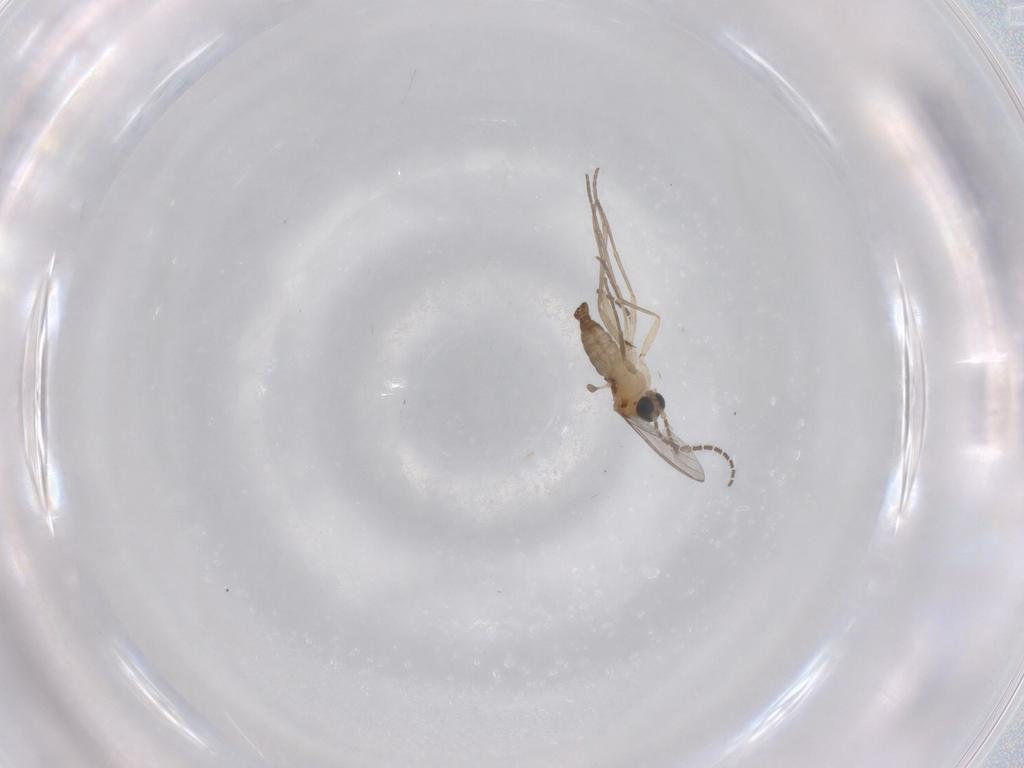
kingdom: Animalia
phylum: Arthropoda
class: Insecta
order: Diptera
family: Sciaridae
